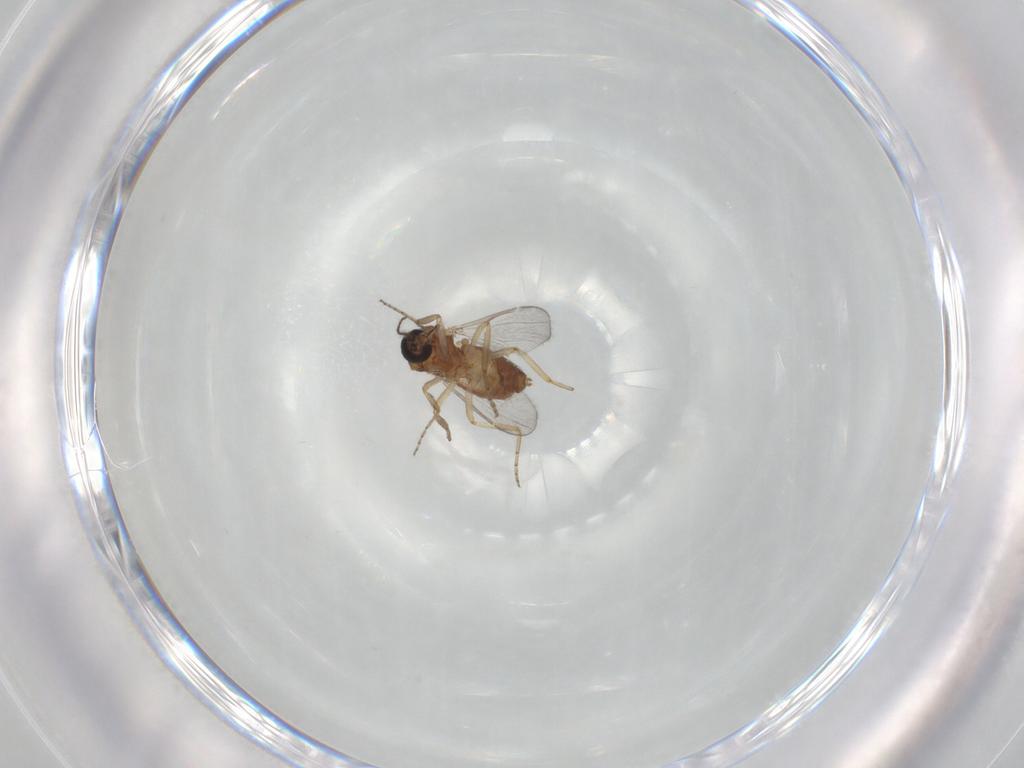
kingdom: Animalia
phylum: Arthropoda
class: Insecta
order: Diptera
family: Ceratopogonidae
